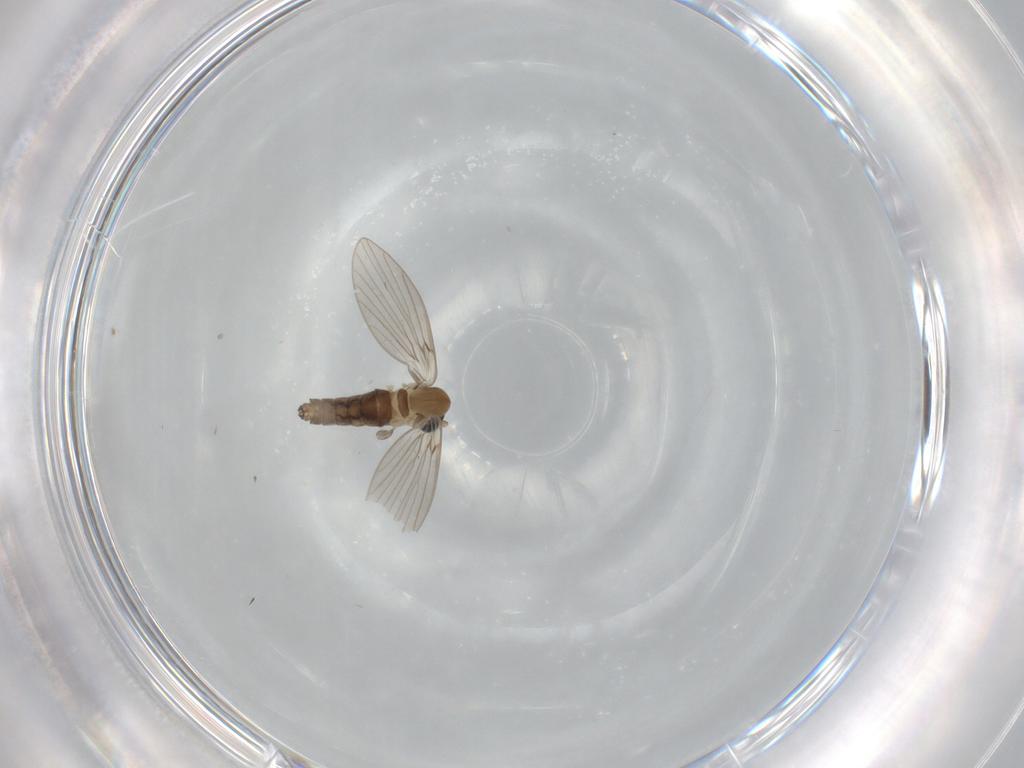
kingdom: Animalia
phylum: Arthropoda
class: Insecta
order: Diptera
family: Psychodidae
